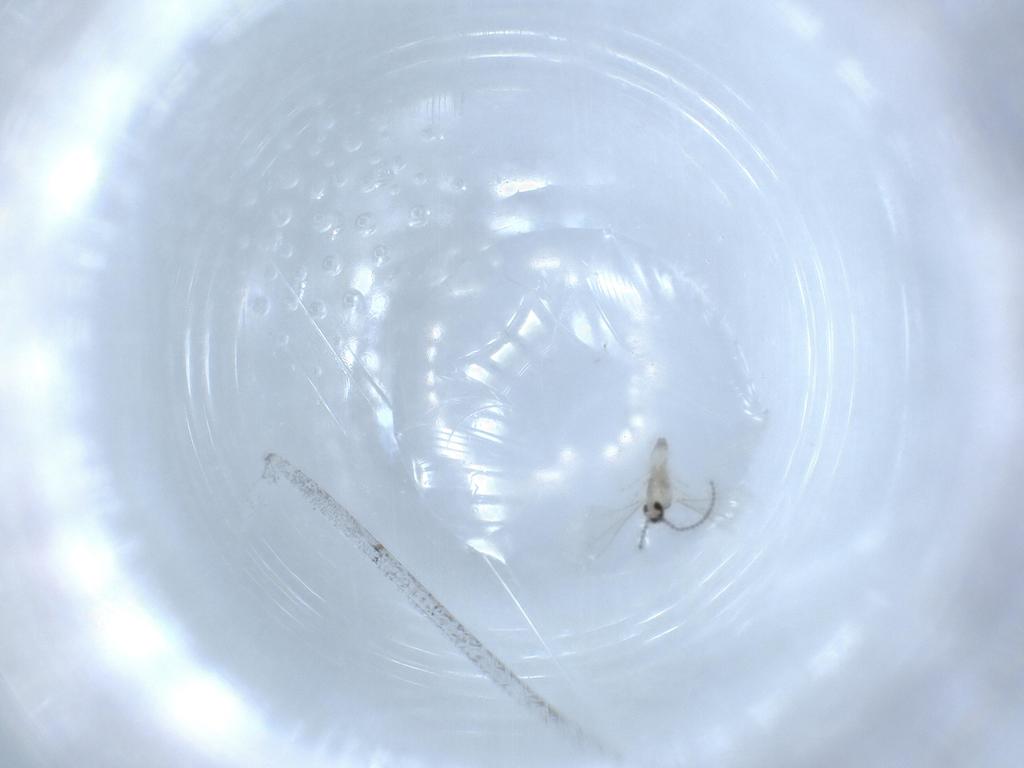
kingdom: Animalia
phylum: Arthropoda
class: Insecta
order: Diptera
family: Cecidomyiidae
